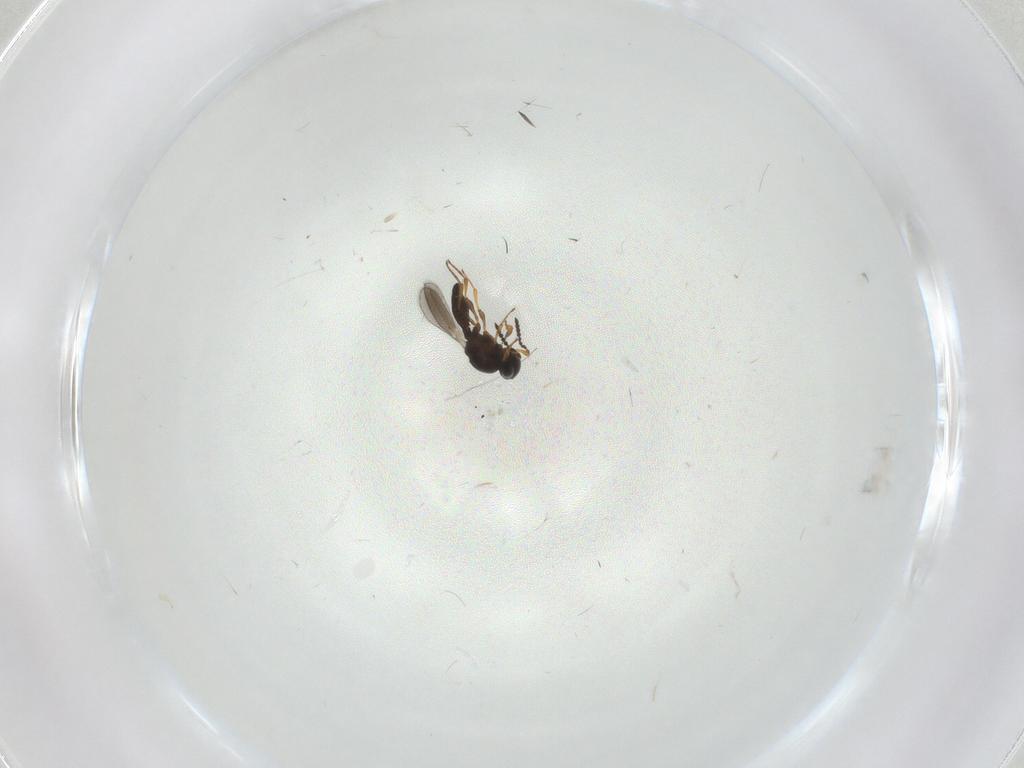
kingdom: Animalia
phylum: Arthropoda
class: Insecta
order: Hymenoptera
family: Platygastridae
